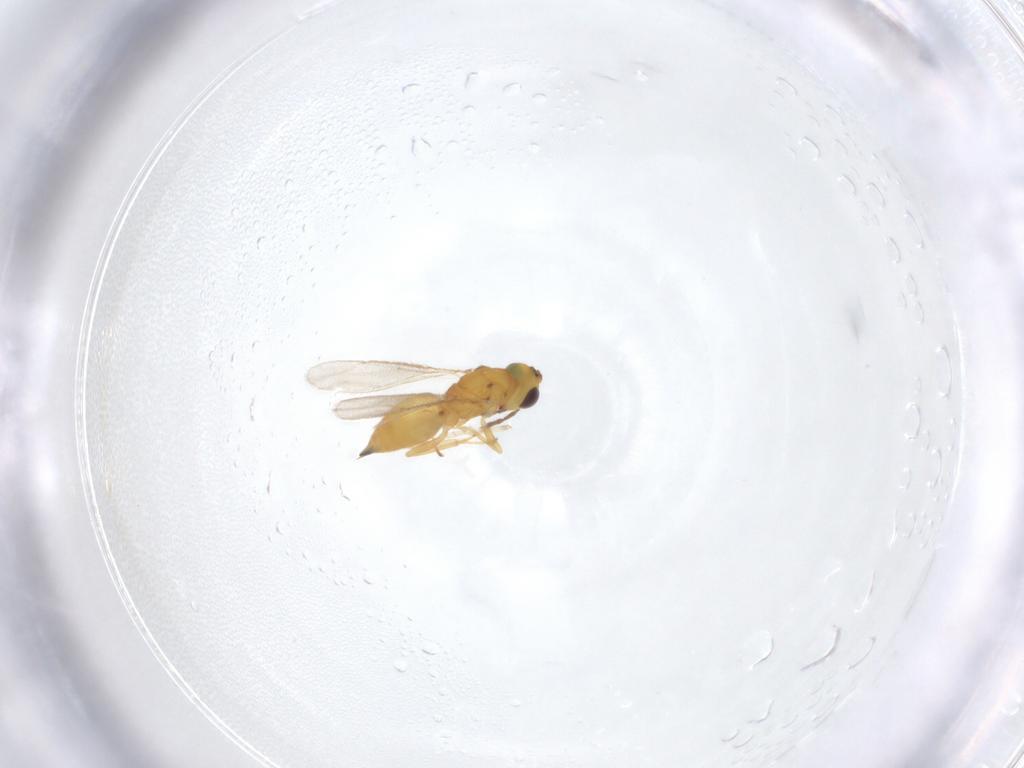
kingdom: Animalia
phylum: Arthropoda
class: Insecta
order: Hymenoptera
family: Eulophidae
